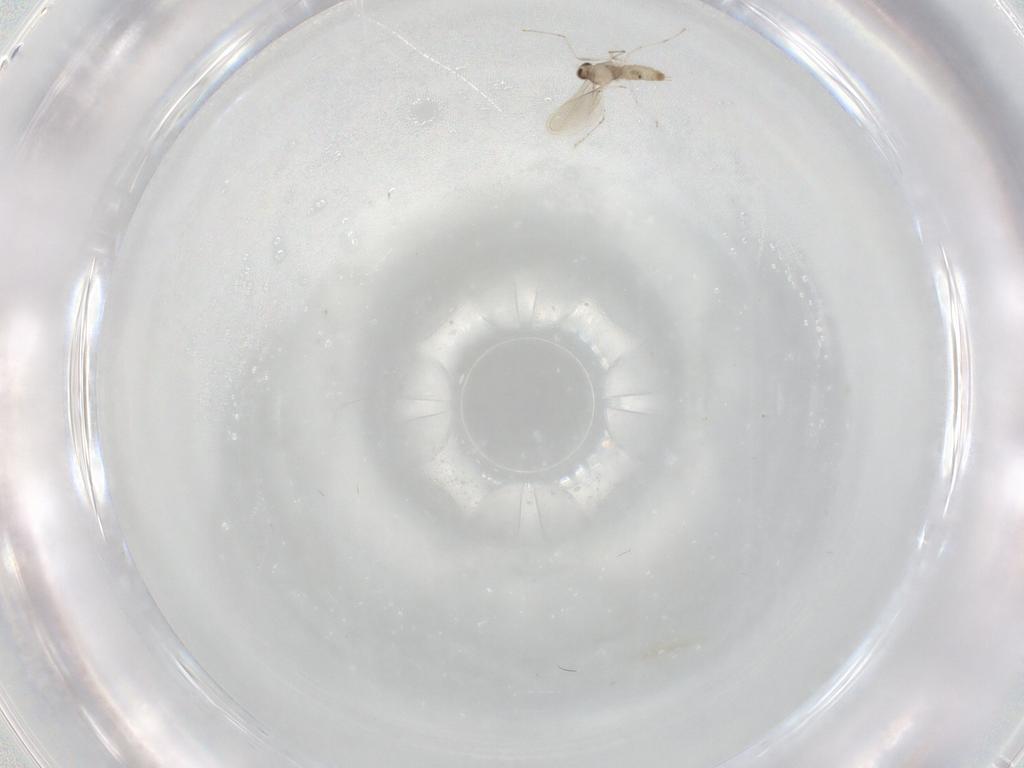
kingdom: Animalia
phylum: Arthropoda
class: Insecta
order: Diptera
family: Cecidomyiidae
